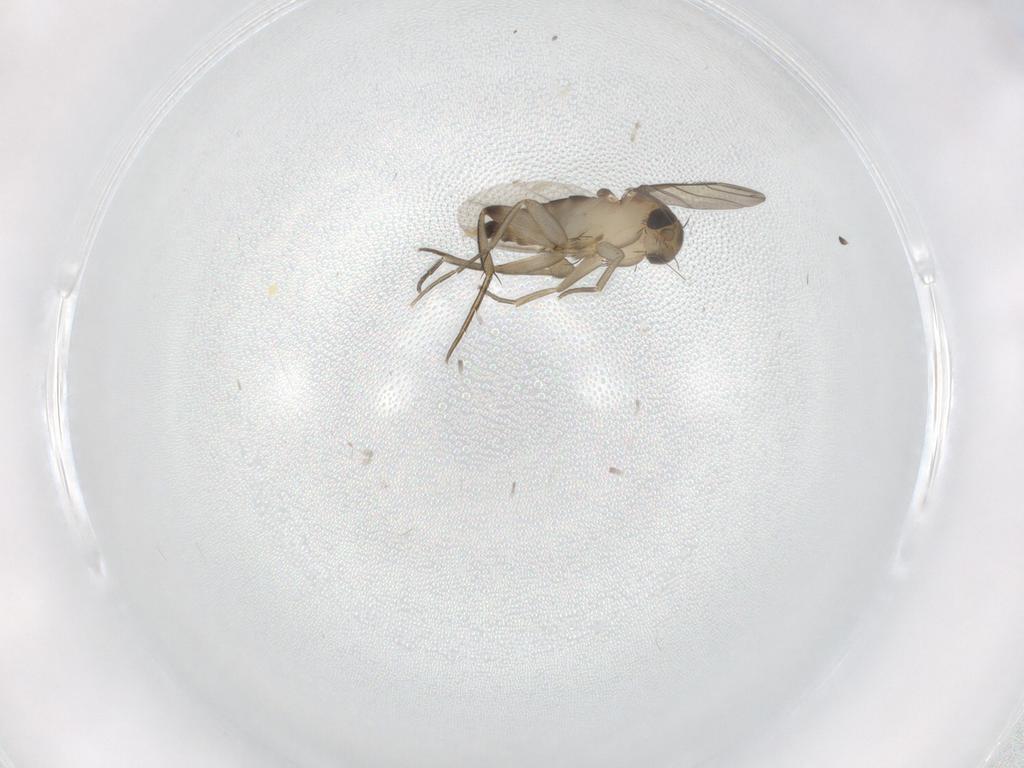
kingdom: Animalia
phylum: Arthropoda
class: Insecta
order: Diptera
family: Phoridae
